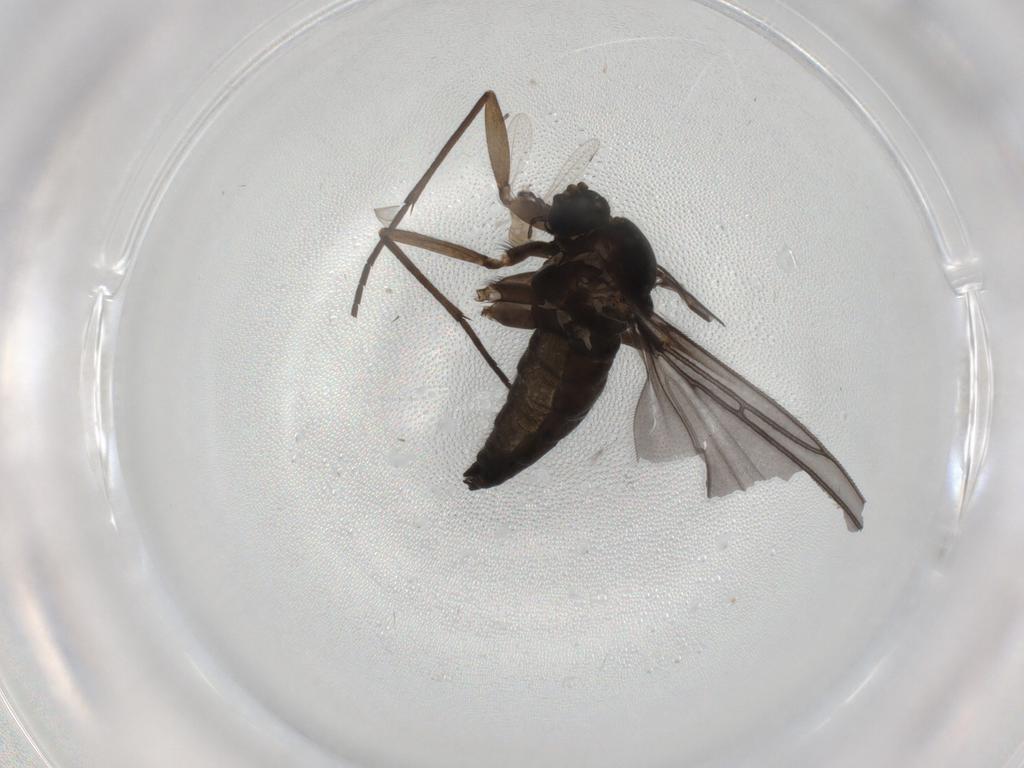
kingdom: Animalia
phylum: Arthropoda
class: Insecta
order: Diptera
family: Sciaridae
